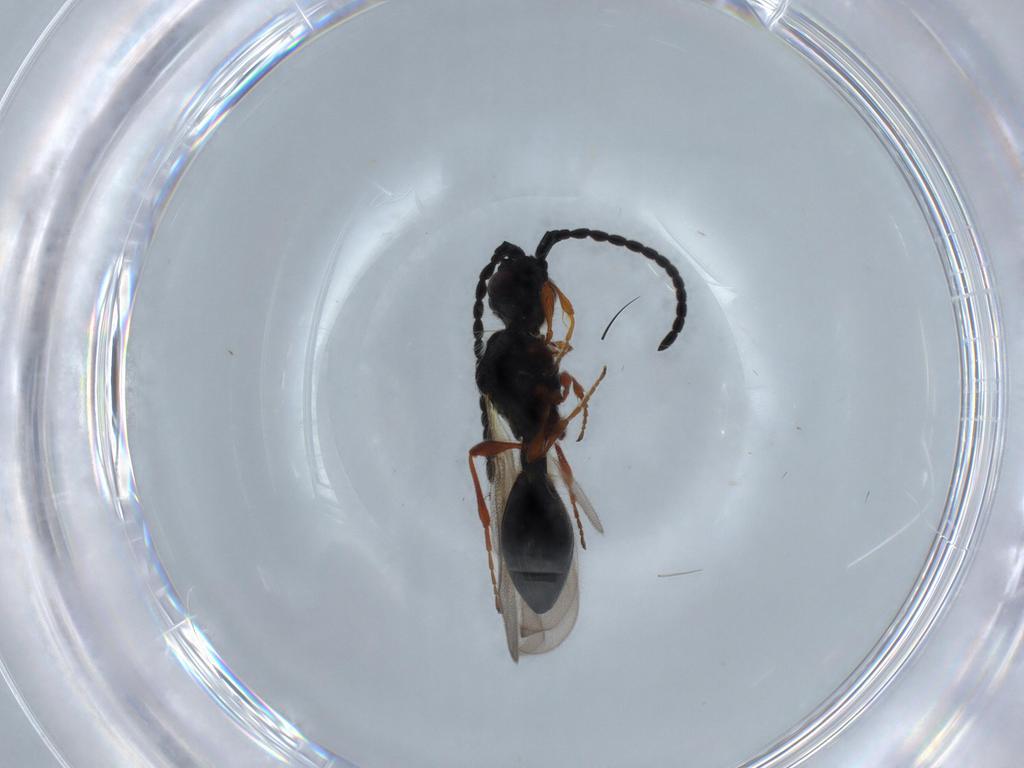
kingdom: Animalia
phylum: Arthropoda
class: Insecta
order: Hymenoptera
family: Diapriidae
